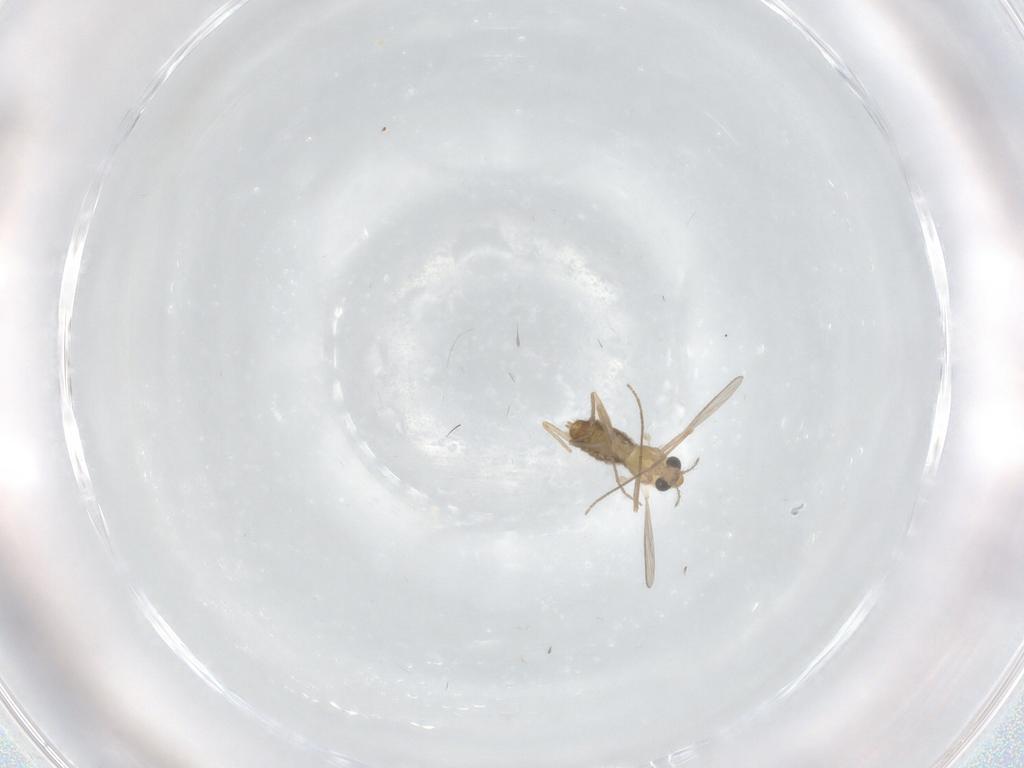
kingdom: Animalia
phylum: Arthropoda
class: Insecta
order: Diptera
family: Chironomidae
